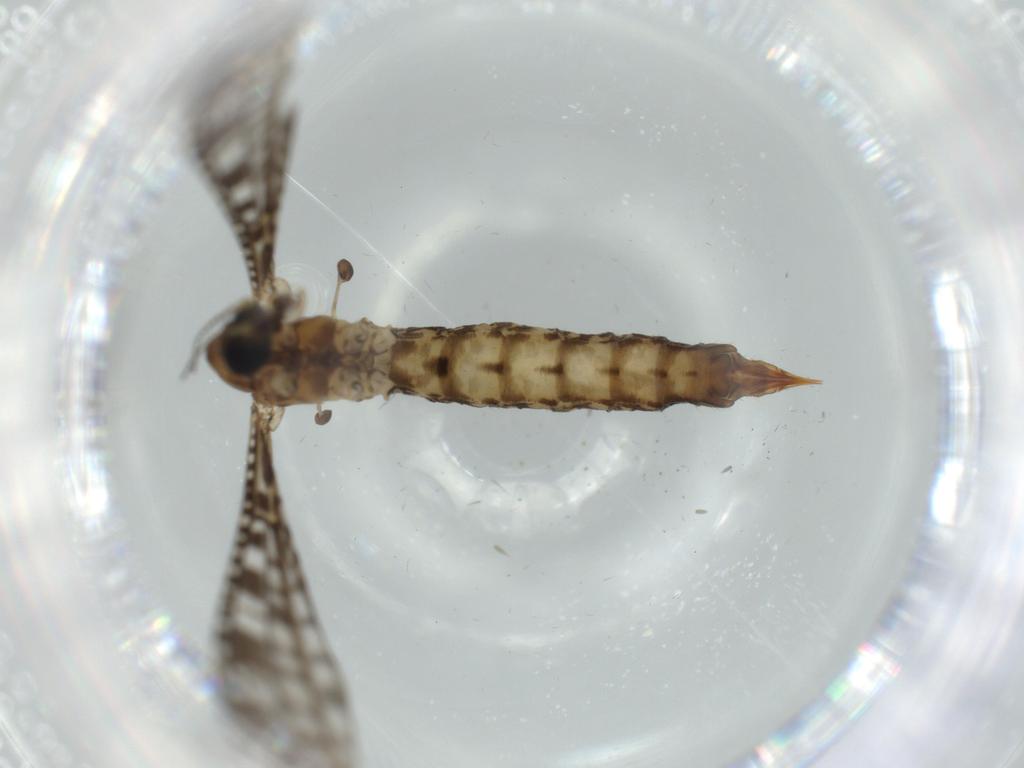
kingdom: Animalia
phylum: Arthropoda
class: Insecta
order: Diptera
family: Sciaridae
